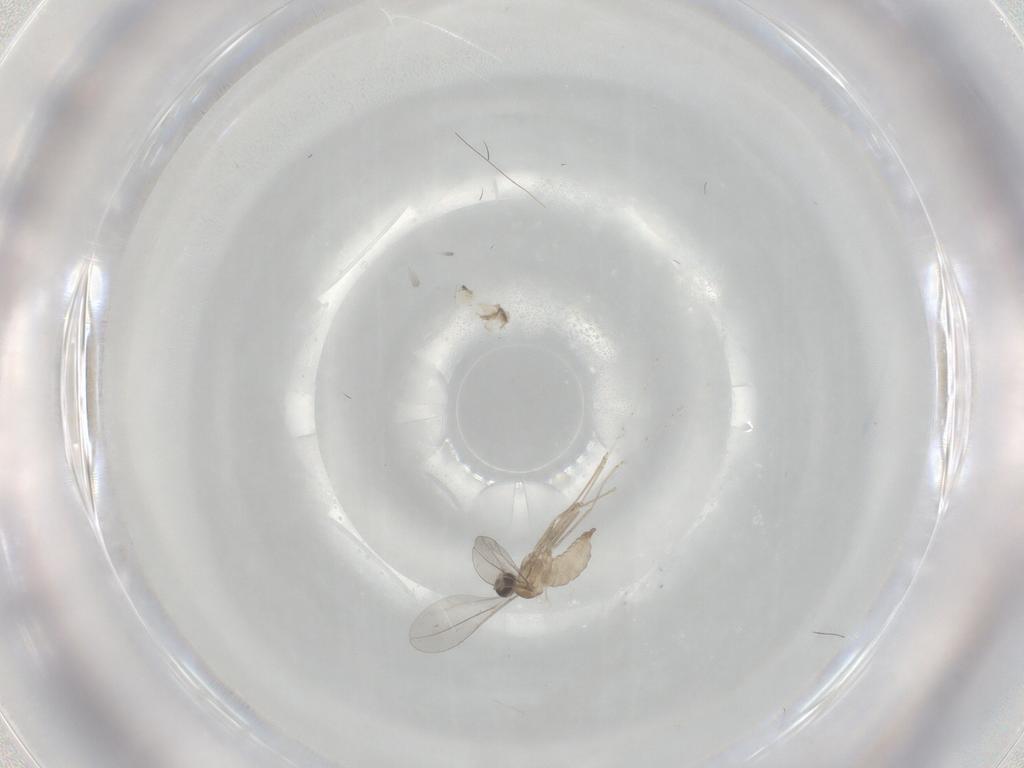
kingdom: Animalia
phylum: Arthropoda
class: Insecta
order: Diptera
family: Cecidomyiidae
